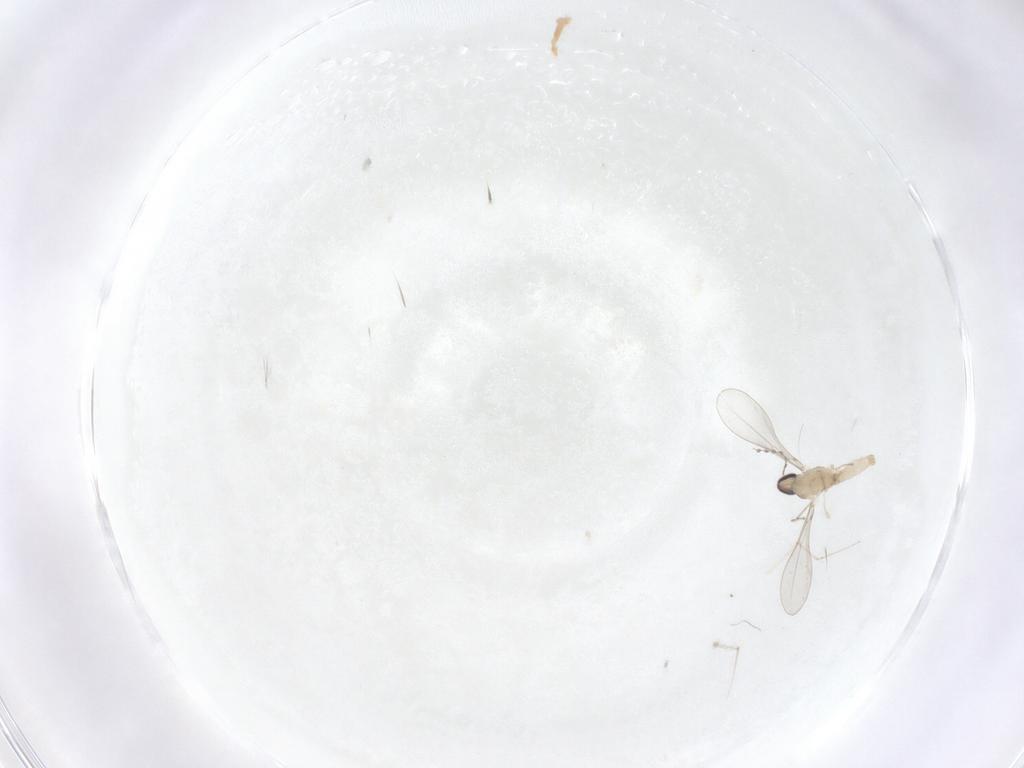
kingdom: Animalia
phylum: Arthropoda
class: Insecta
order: Diptera
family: Cecidomyiidae
